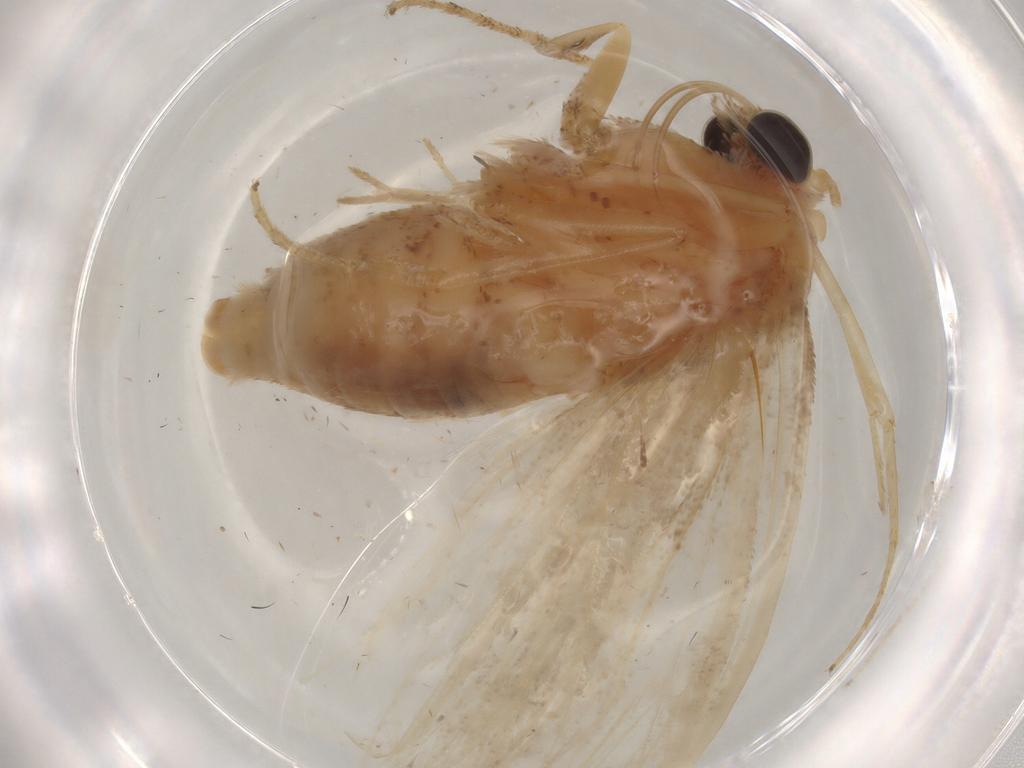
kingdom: Animalia
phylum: Arthropoda
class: Insecta
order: Lepidoptera
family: Nolidae
